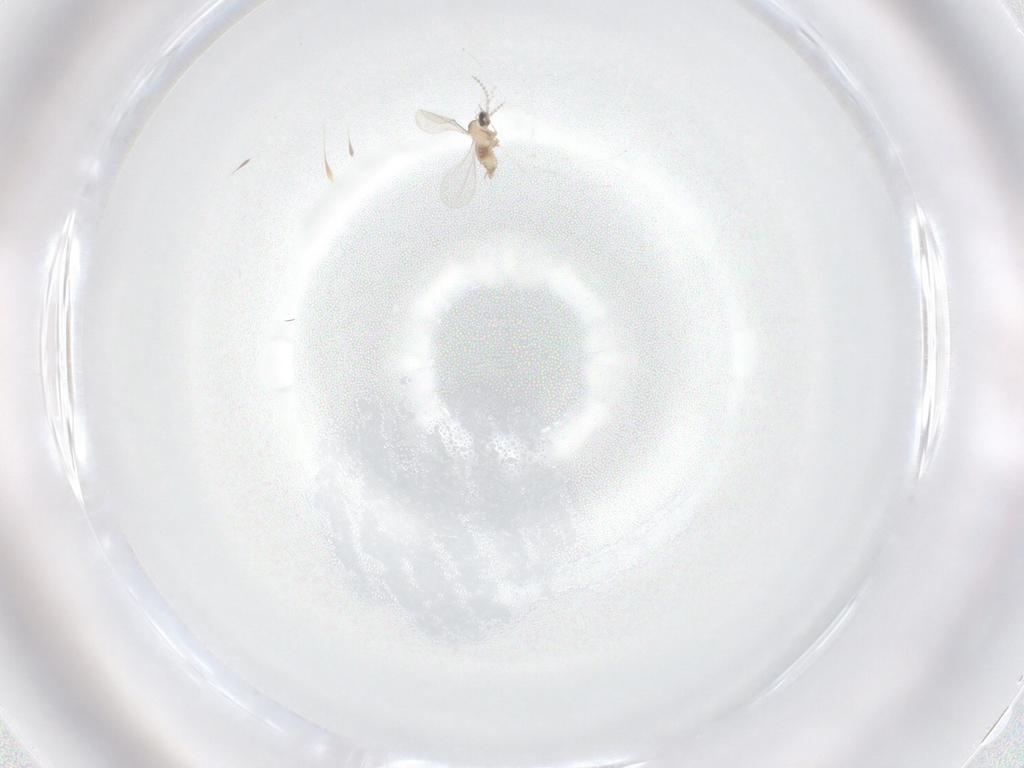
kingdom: Animalia
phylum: Arthropoda
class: Insecta
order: Diptera
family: Cecidomyiidae
